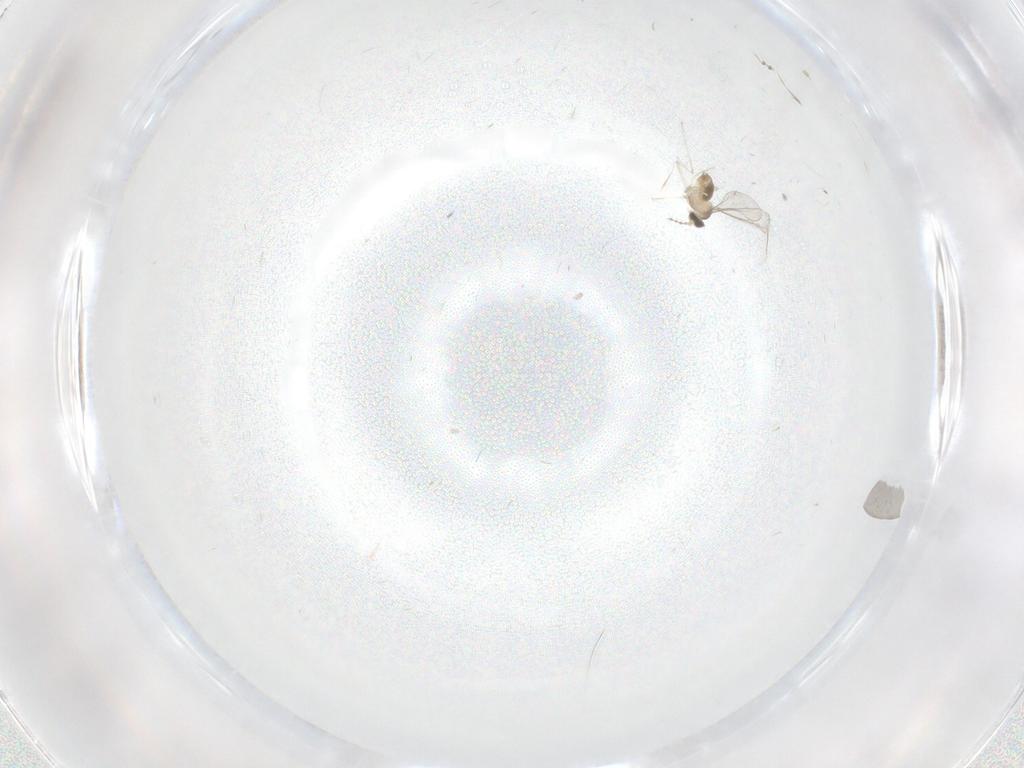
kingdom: Animalia
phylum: Arthropoda
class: Insecta
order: Diptera
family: Psychodidae
